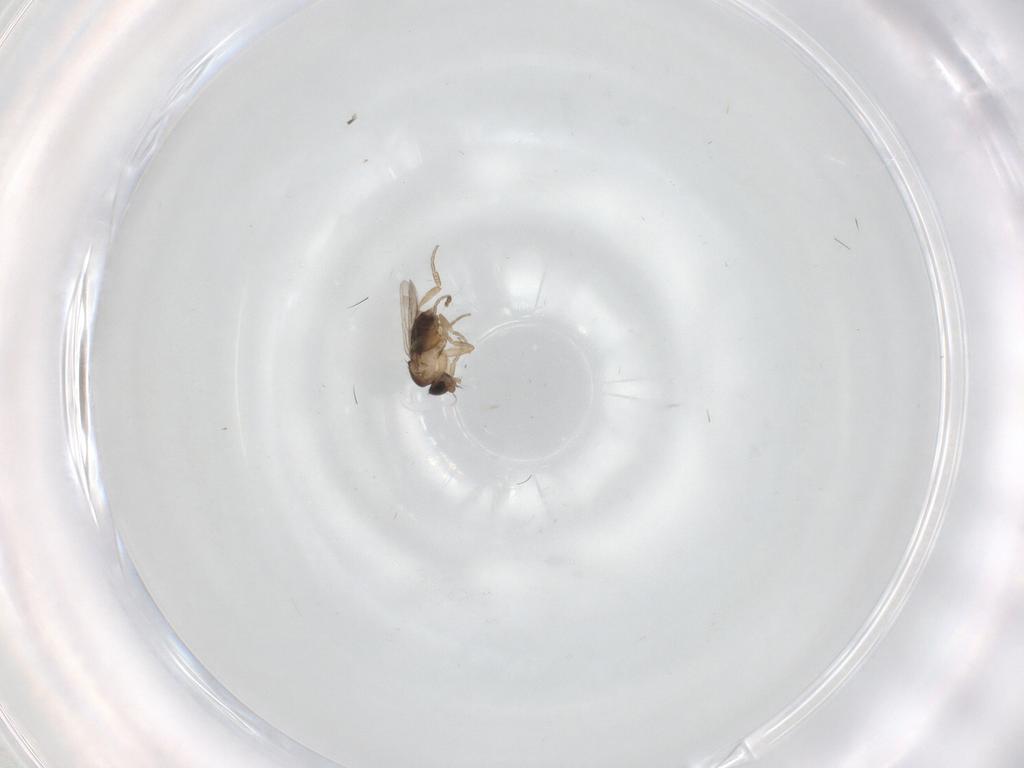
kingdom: Animalia
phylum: Arthropoda
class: Insecta
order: Diptera
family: Cecidomyiidae
